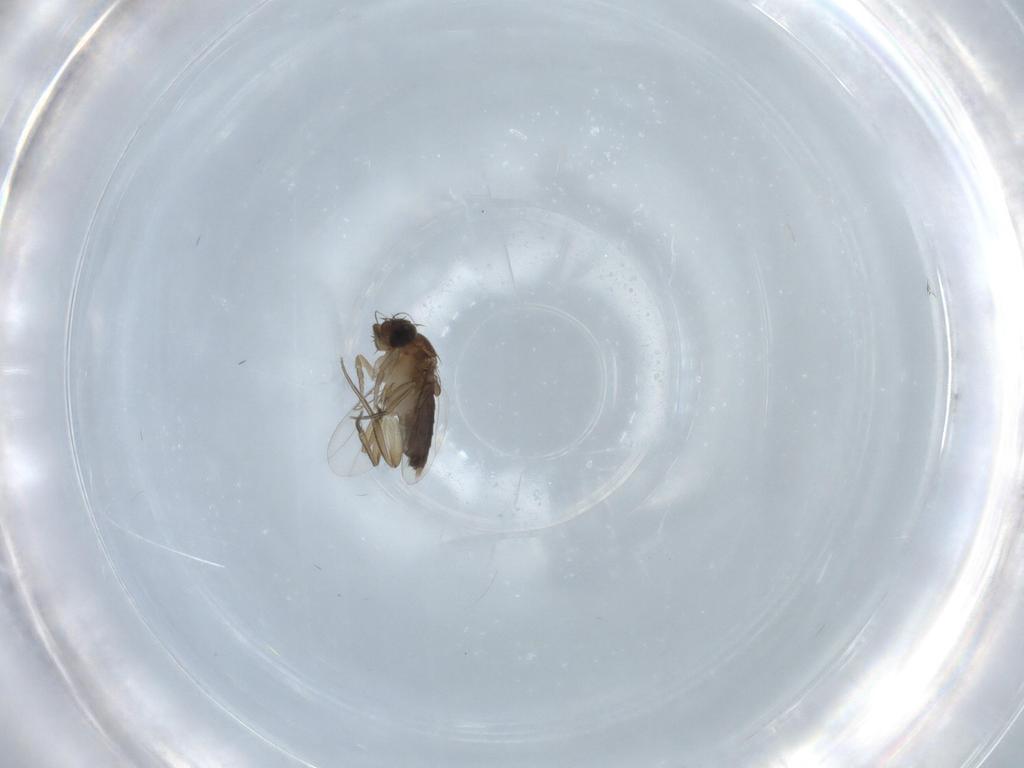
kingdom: Animalia
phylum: Arthropoda
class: Insecta
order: Diptera
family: Phoridae
